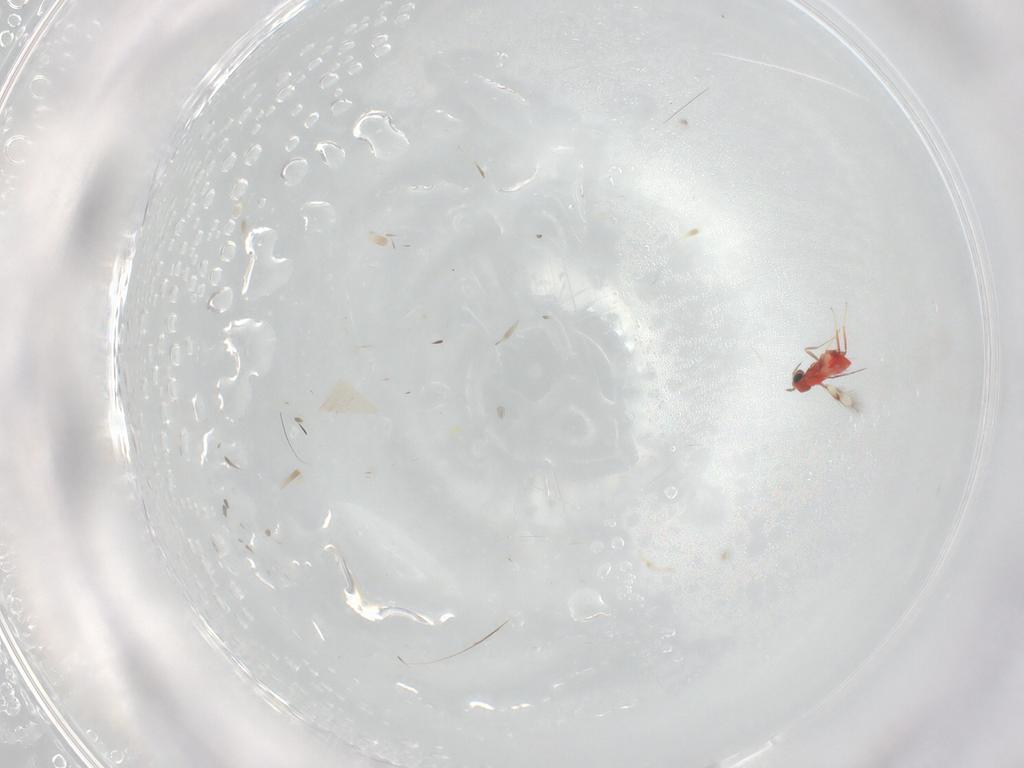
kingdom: Animalia
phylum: Arthropoda
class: Insecta
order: Hymenoptera
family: Trichogrammatidae
